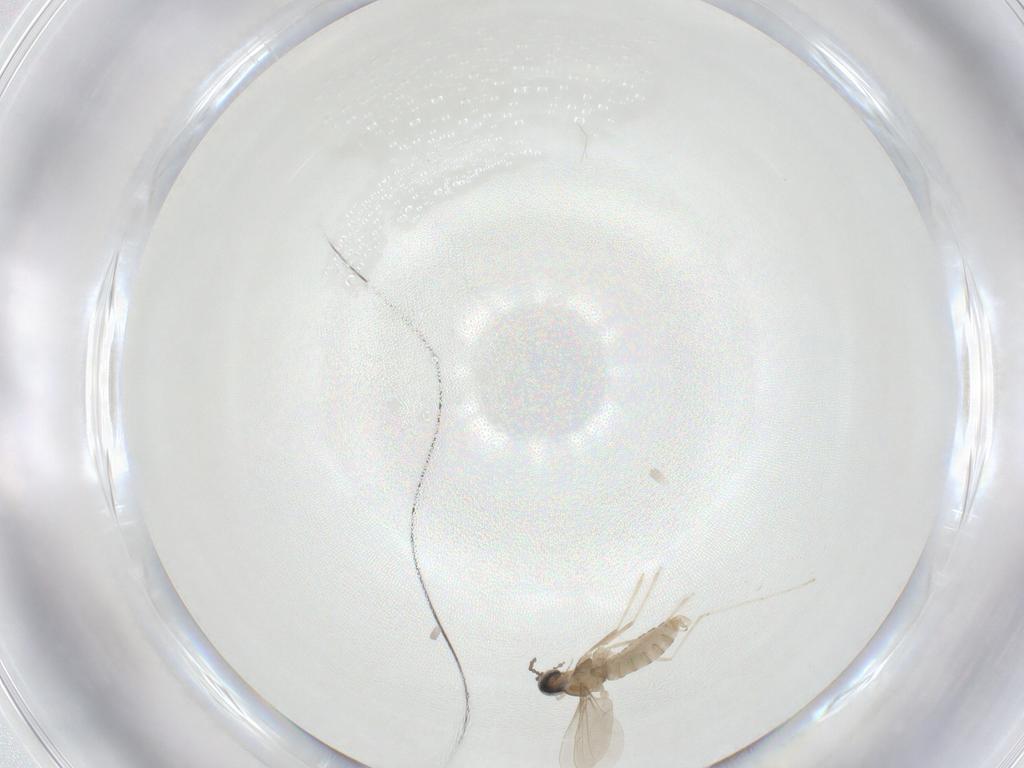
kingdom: Animalia
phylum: Arthropoda
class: Insecta
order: Diptera
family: Cecidomyiidae
